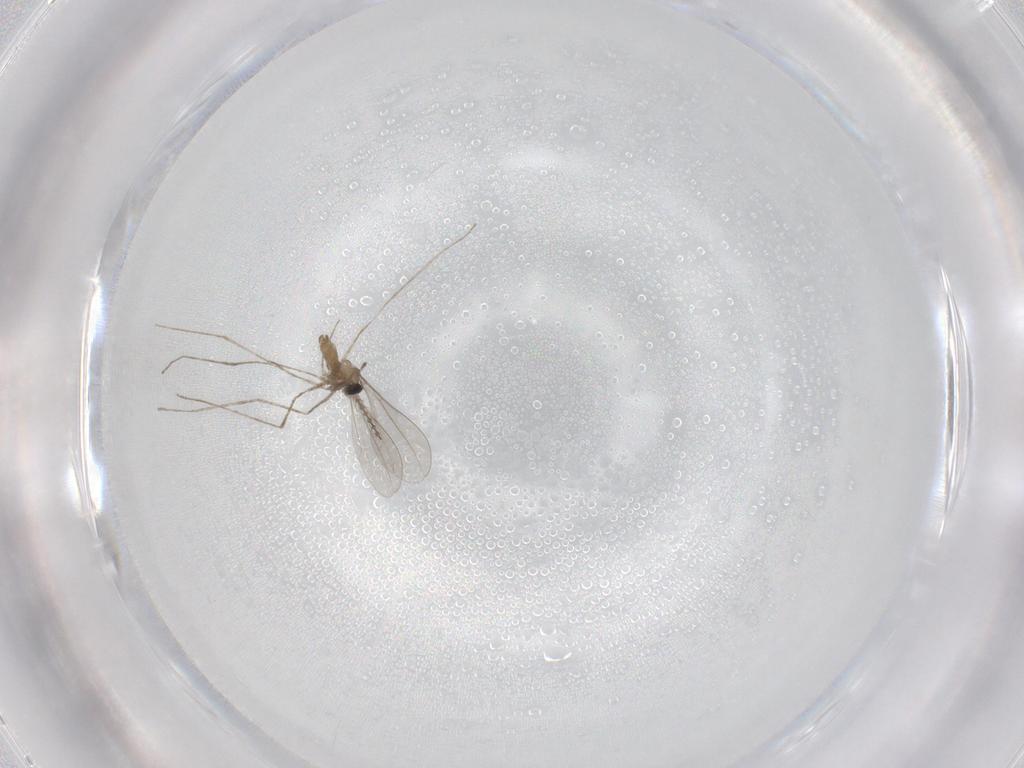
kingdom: Animalia
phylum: Arthropoda
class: Insecta
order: Diptera
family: Cecidomyiidae
